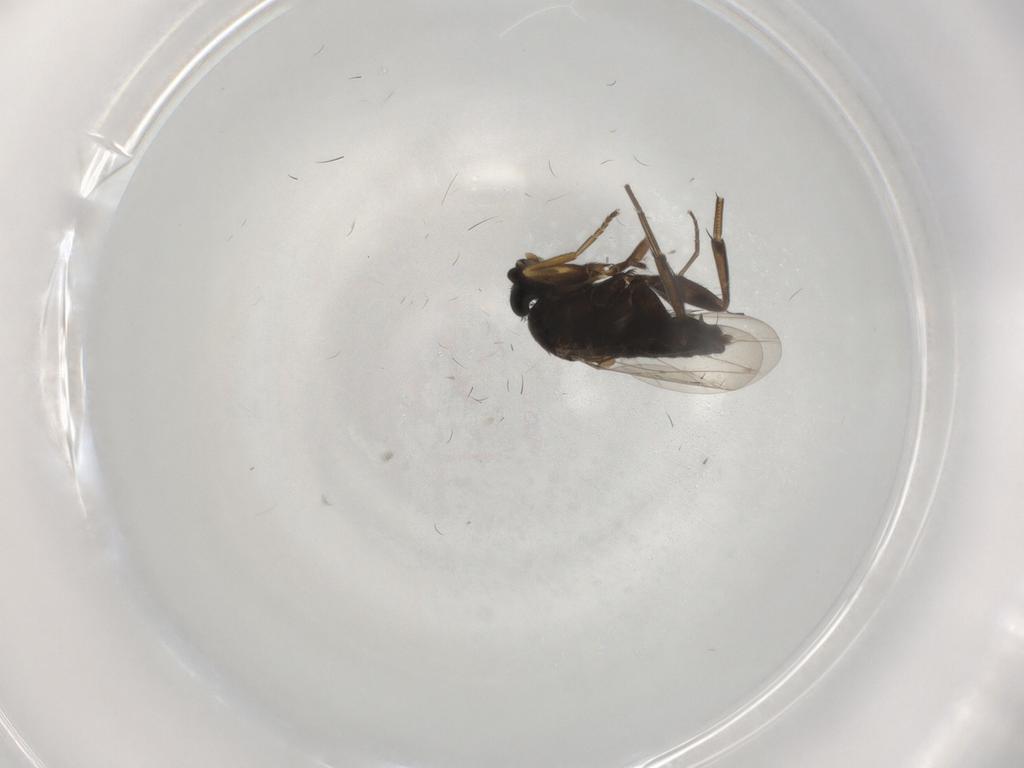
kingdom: Animalia
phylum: Arthropoda
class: Insecta
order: Diptera
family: Phoridae
